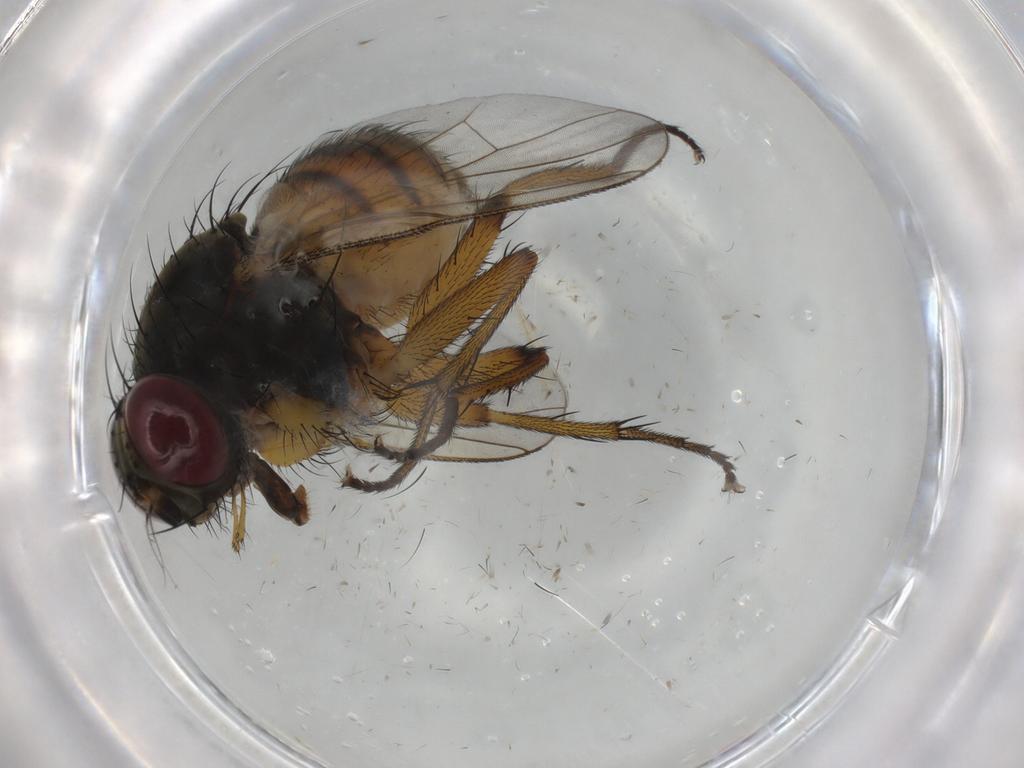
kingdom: Animalia
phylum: Arthropoda
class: Insecta
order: Diptera
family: Muscidae
